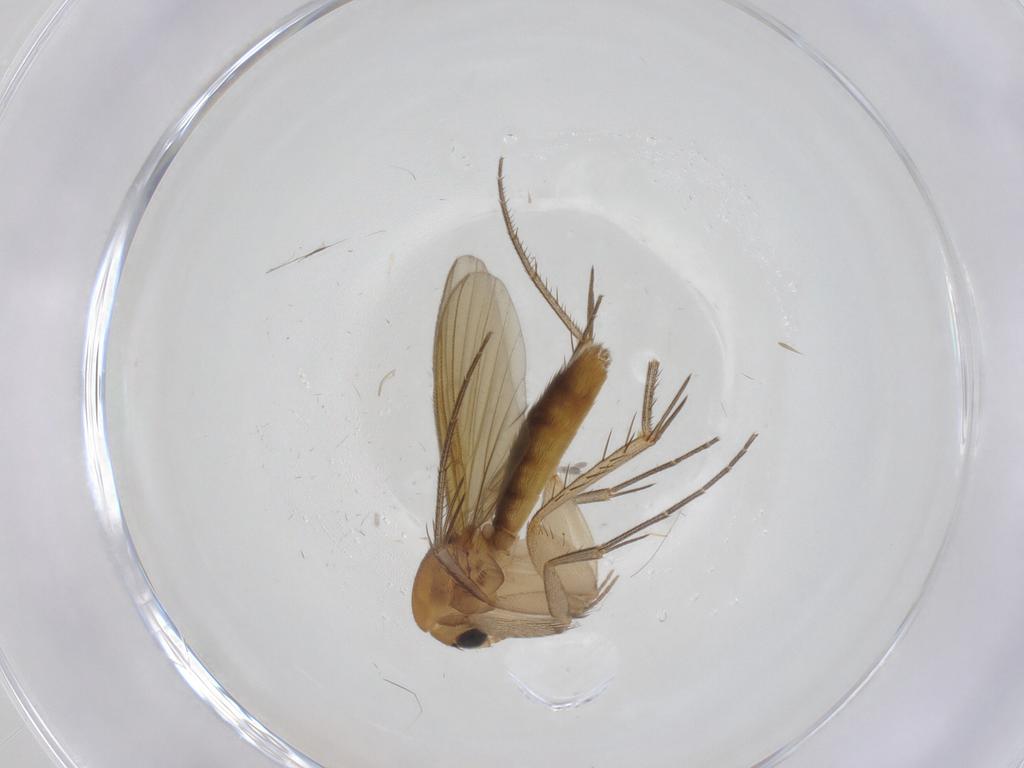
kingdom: Animalia
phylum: Arthropoda
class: Insecta
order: Diptera
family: Mycetophilidae
